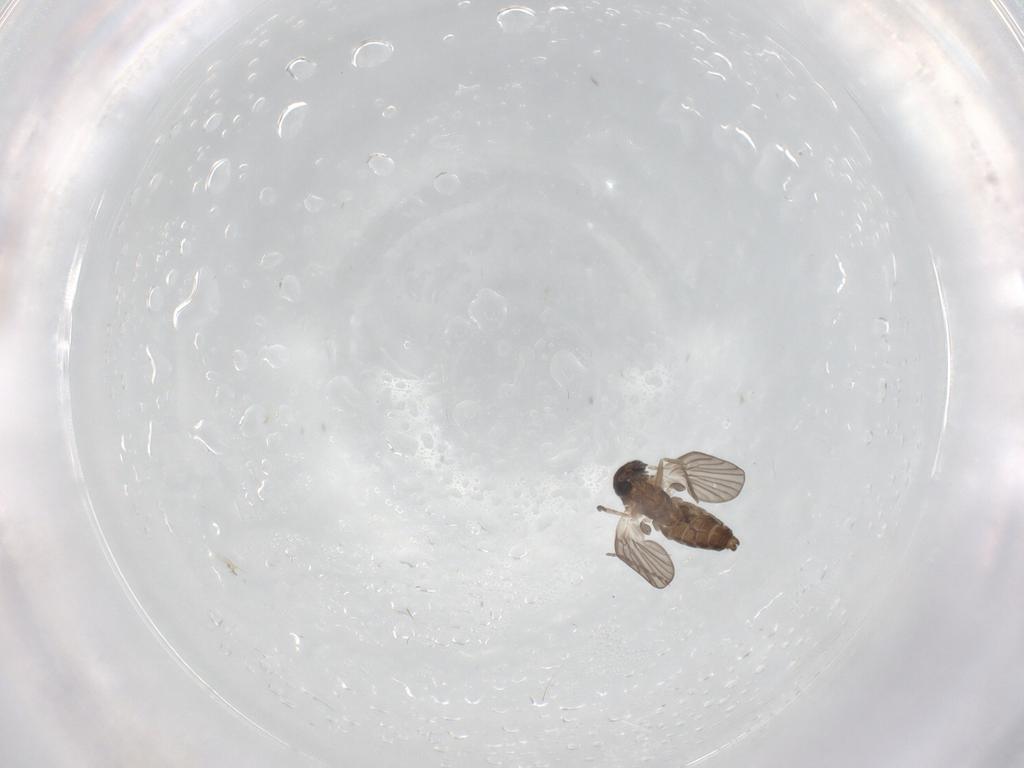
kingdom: Animalia
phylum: Arthropoda
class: Insecta
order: Diptera
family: Cecidomyiidae
